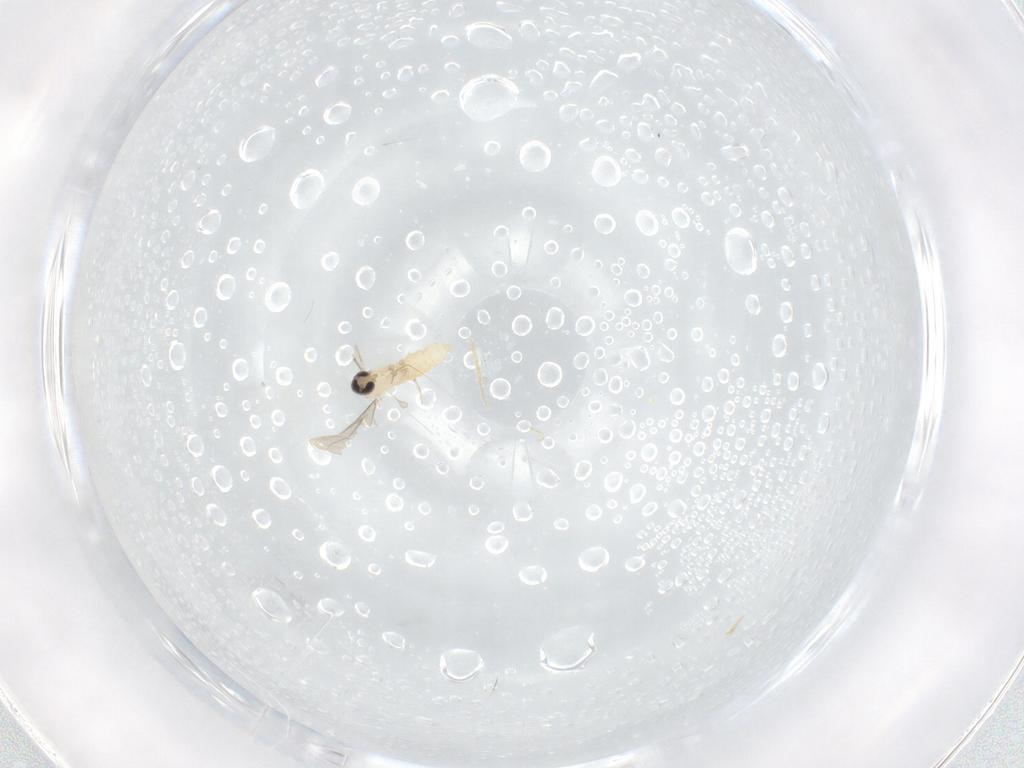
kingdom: Animalia
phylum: Arthropoda
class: Insecta
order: Diptera
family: Cecidomyiidae
